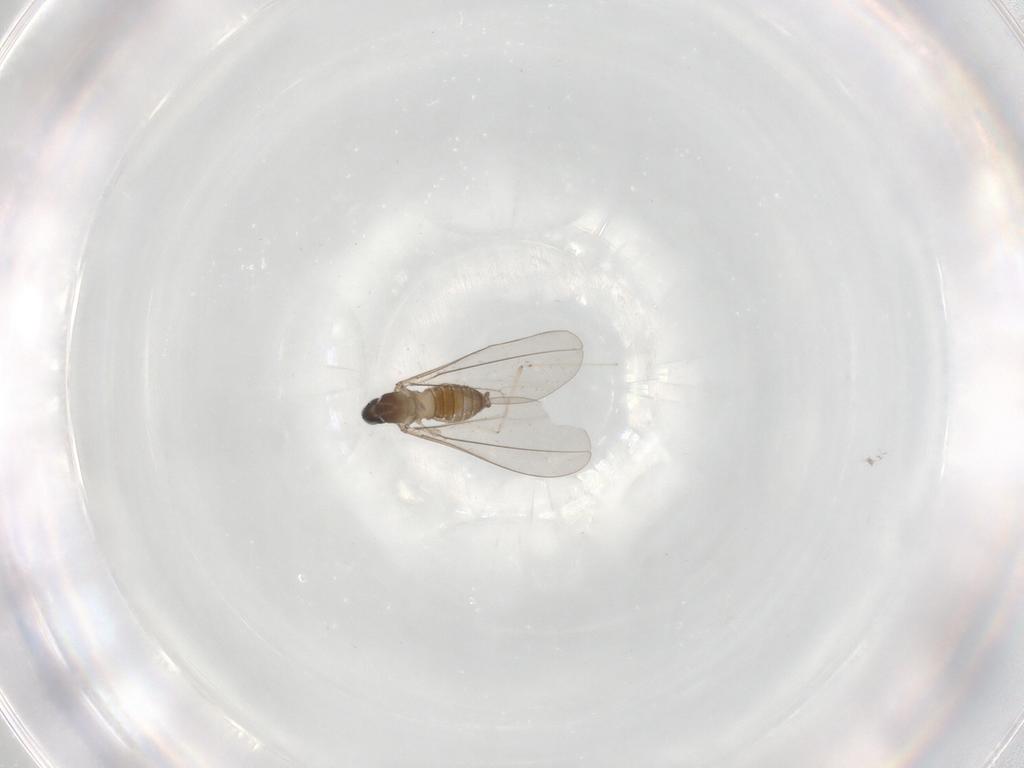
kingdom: Animalia
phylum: Arthropoda
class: Insecta
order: Diptera
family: Cecidomyiidae
